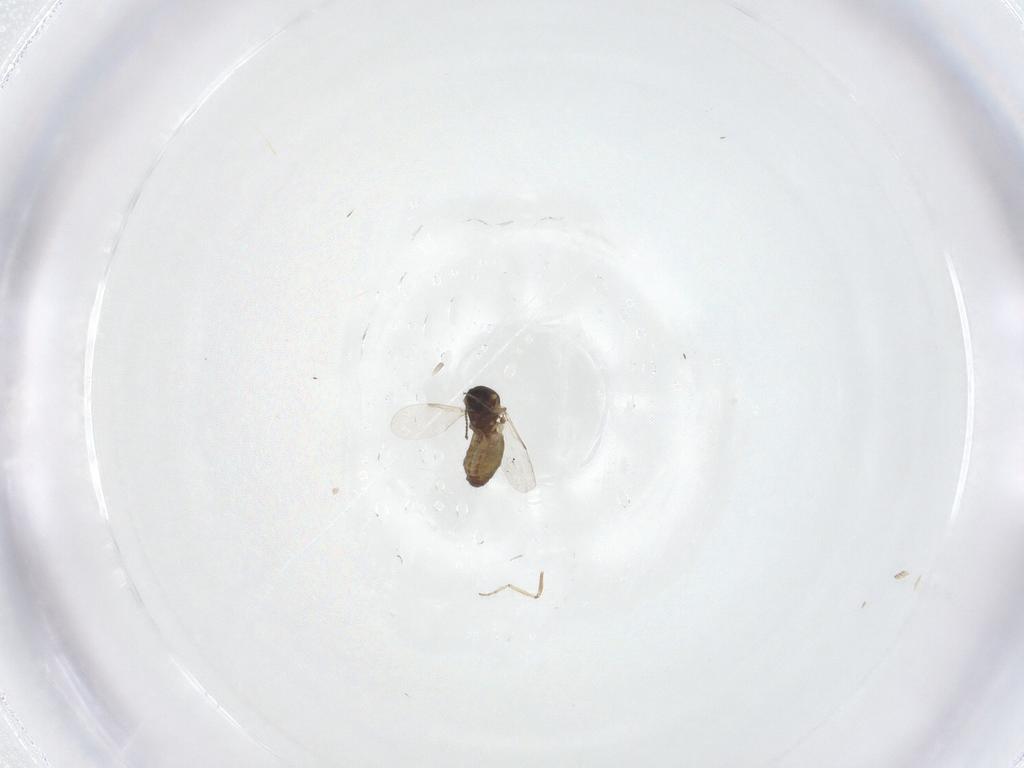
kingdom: Animalia
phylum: Arthropoda
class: Insecta
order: Diptera
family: Ceratopogonidae
